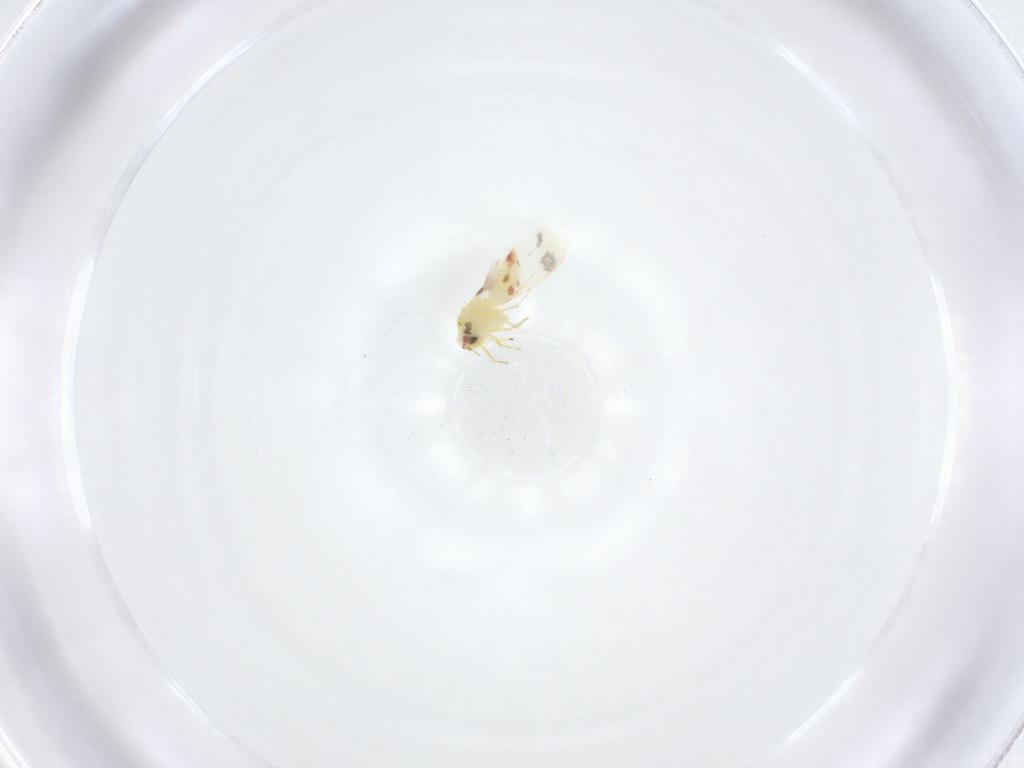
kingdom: Animalia
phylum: Arthropoda
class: Insecta
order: Hemiptera
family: Aleyrodidae
